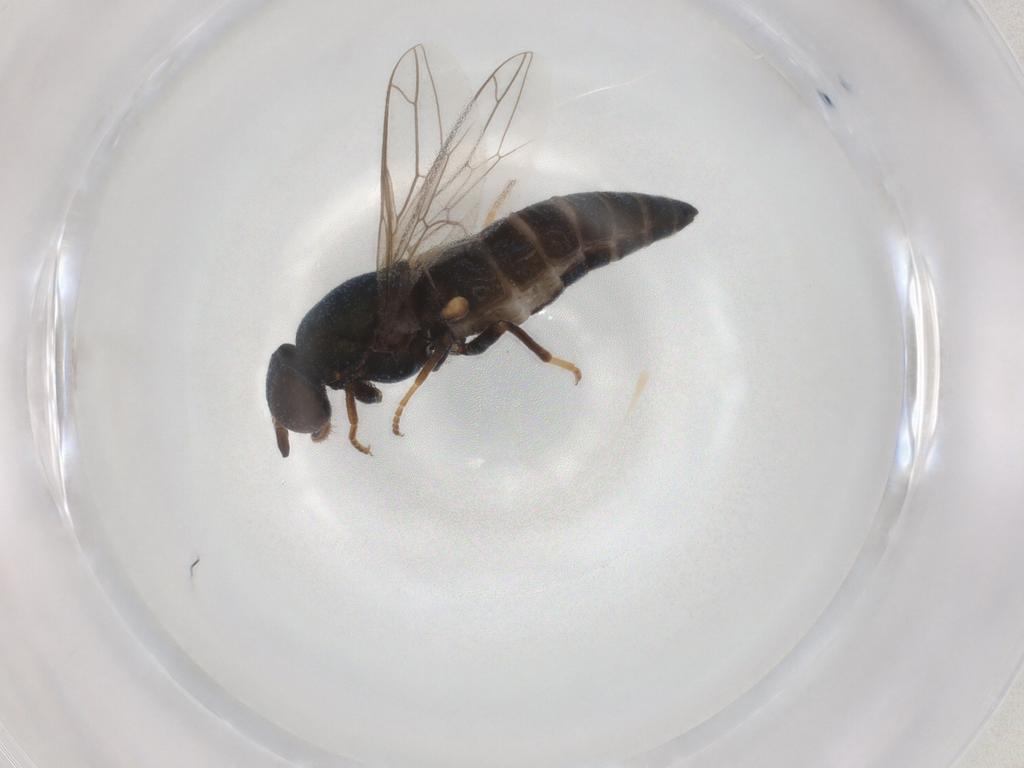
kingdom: Animalia
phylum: Arthropoda
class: Insecta
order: Diptera
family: Scenopinidae
